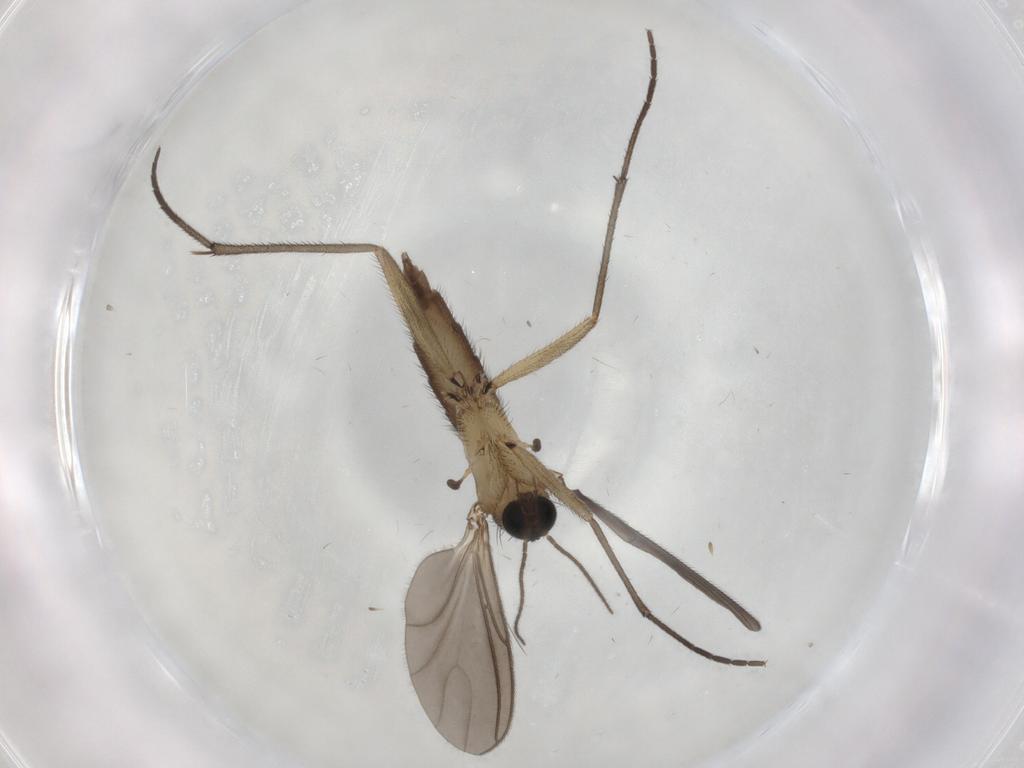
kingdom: Animalia
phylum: Arthropoda
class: Insecta
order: Diptera
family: Sciaridae
